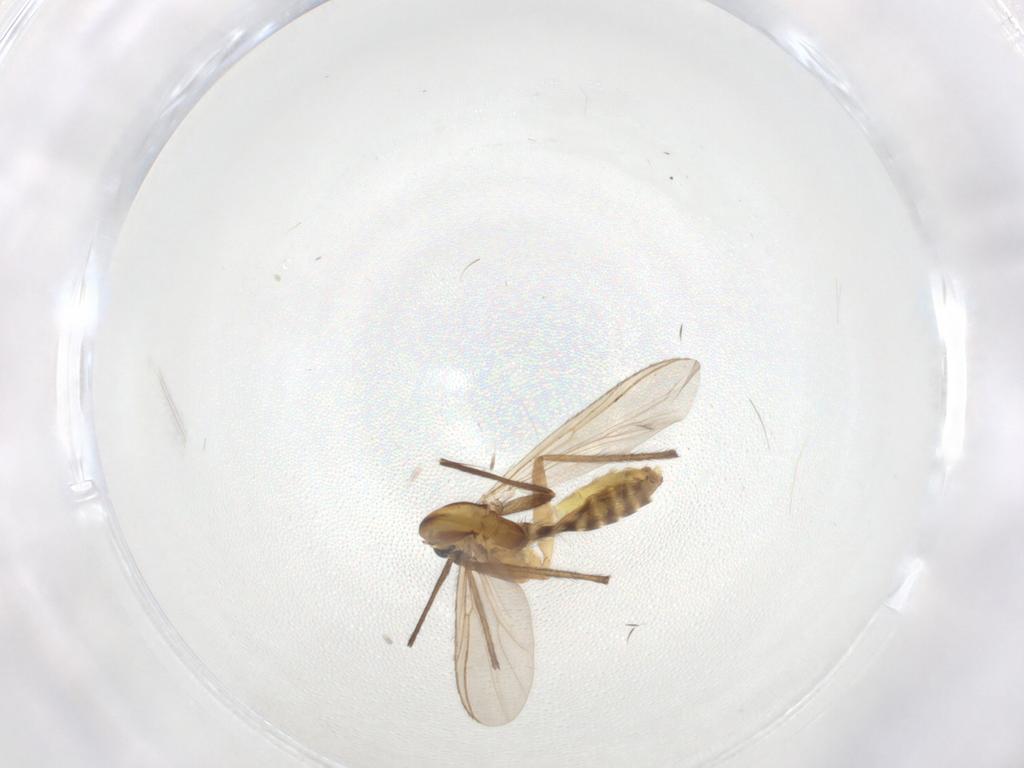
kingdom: Animalia
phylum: Arthropoda
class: Insecta
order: Diptera
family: Chironomidae
